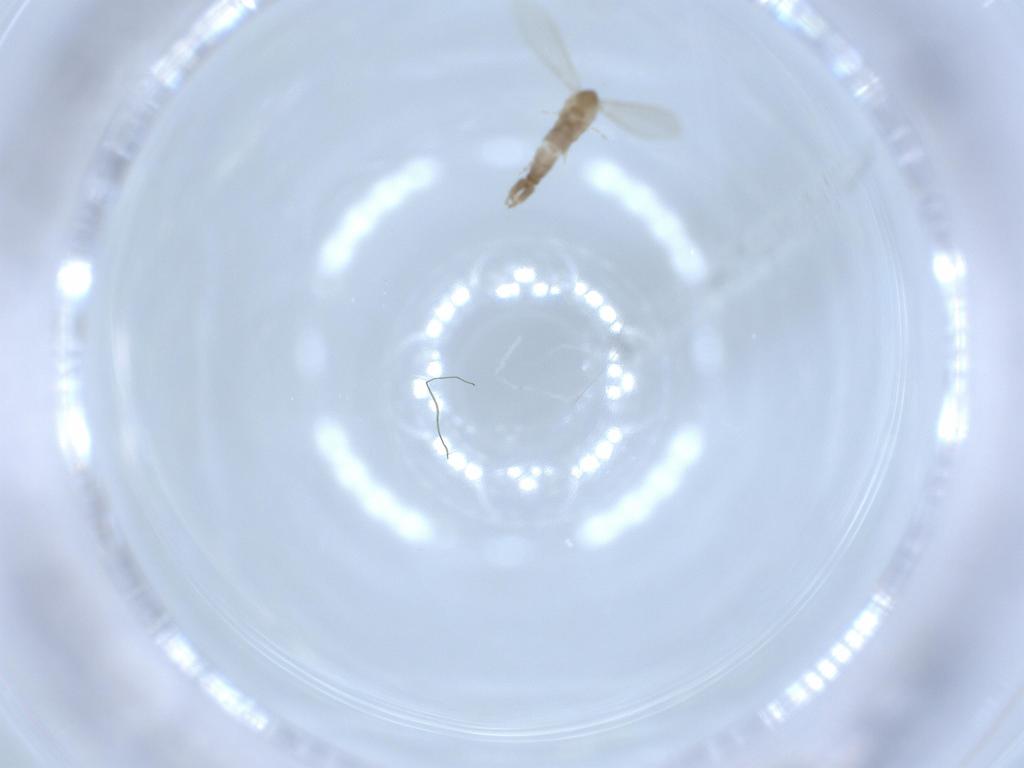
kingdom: Animalia
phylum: Arthropoda
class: Insecta
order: Diptera
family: Psychodidae
